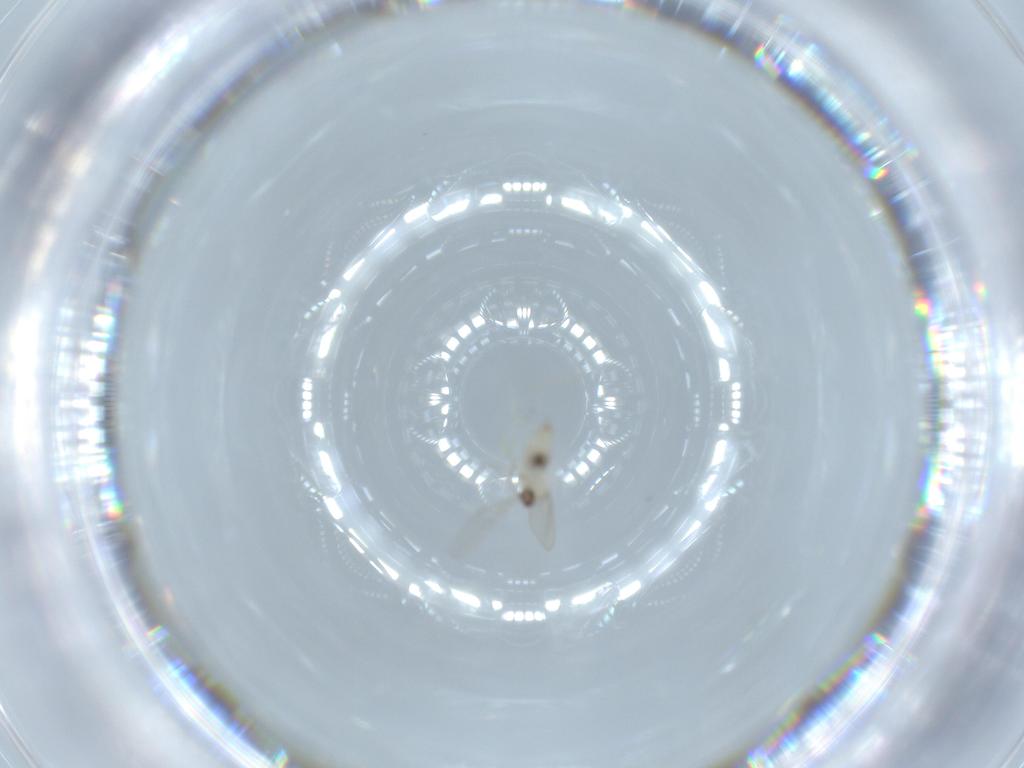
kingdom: Animalia
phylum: Arthropoda
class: Insecta
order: Diptera
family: Cecidomyiidae
